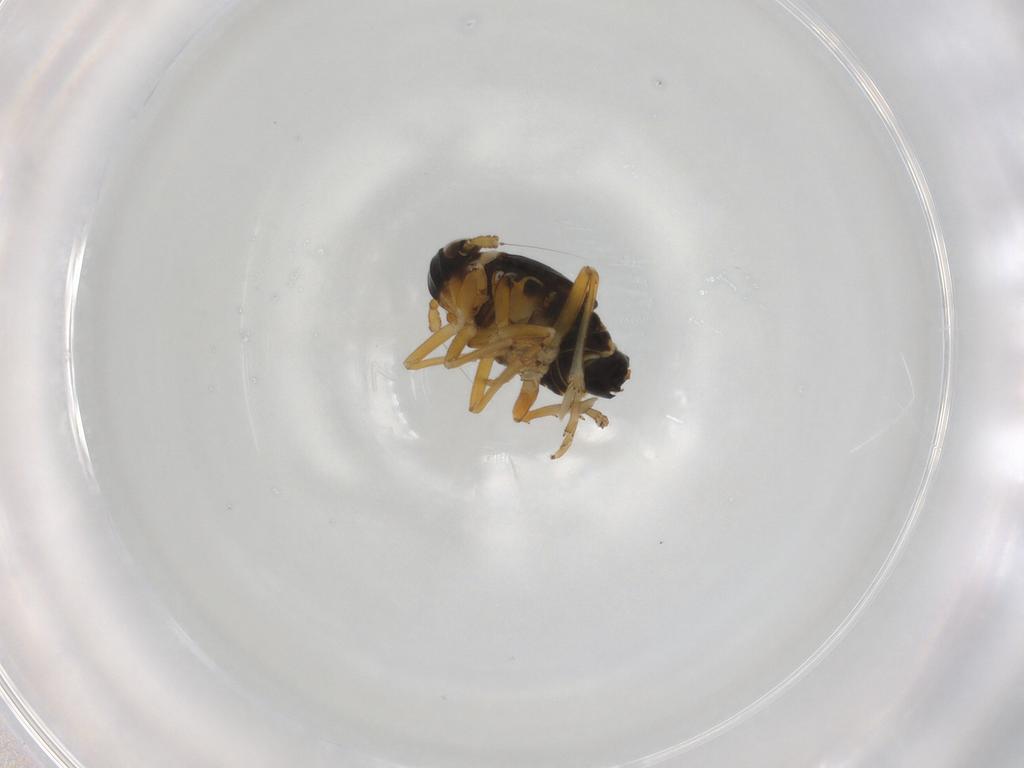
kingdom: Animalia
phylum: Arthropoda
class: Insecta
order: Hemiptera
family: Delphacidae
